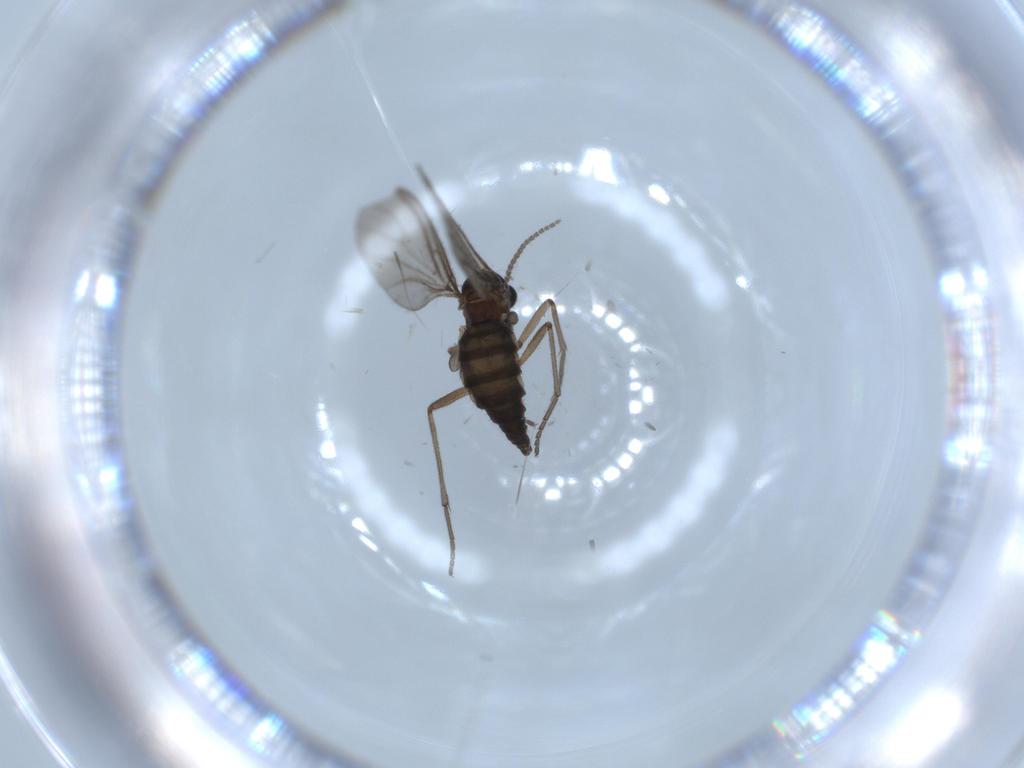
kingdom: Animalia
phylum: Arthropoda
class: Insecta
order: Diptera
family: Sciaridae
